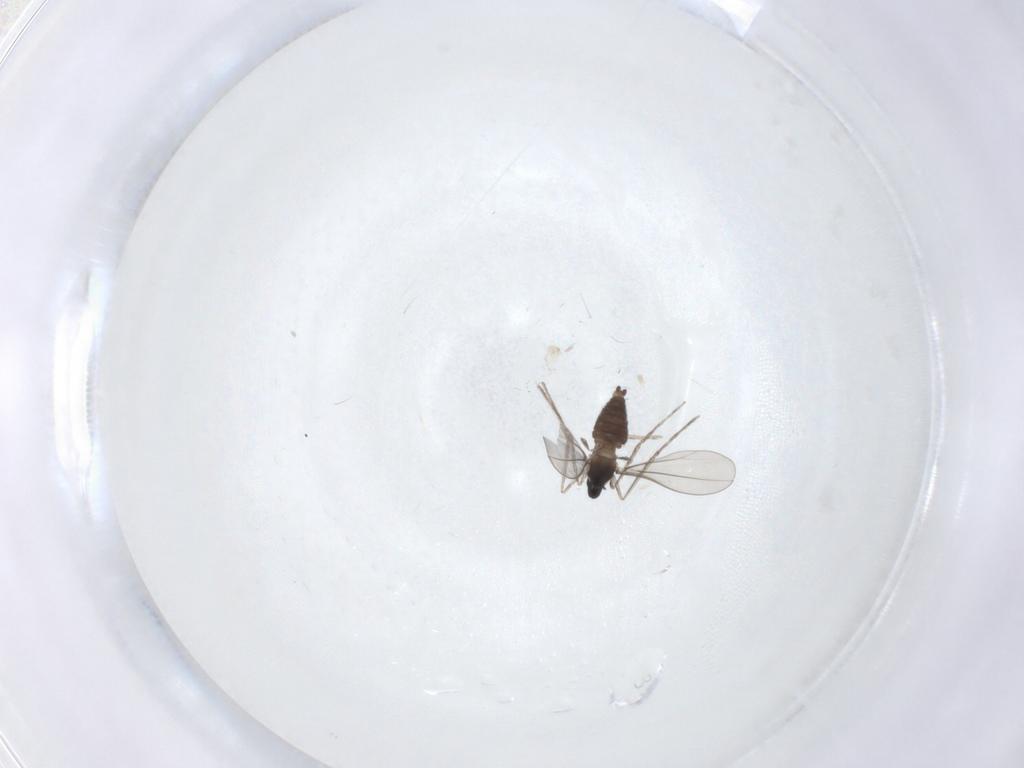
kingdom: Animalia
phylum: Arthropoda
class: Insecta
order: Diptera
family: Cecidomyiidae
